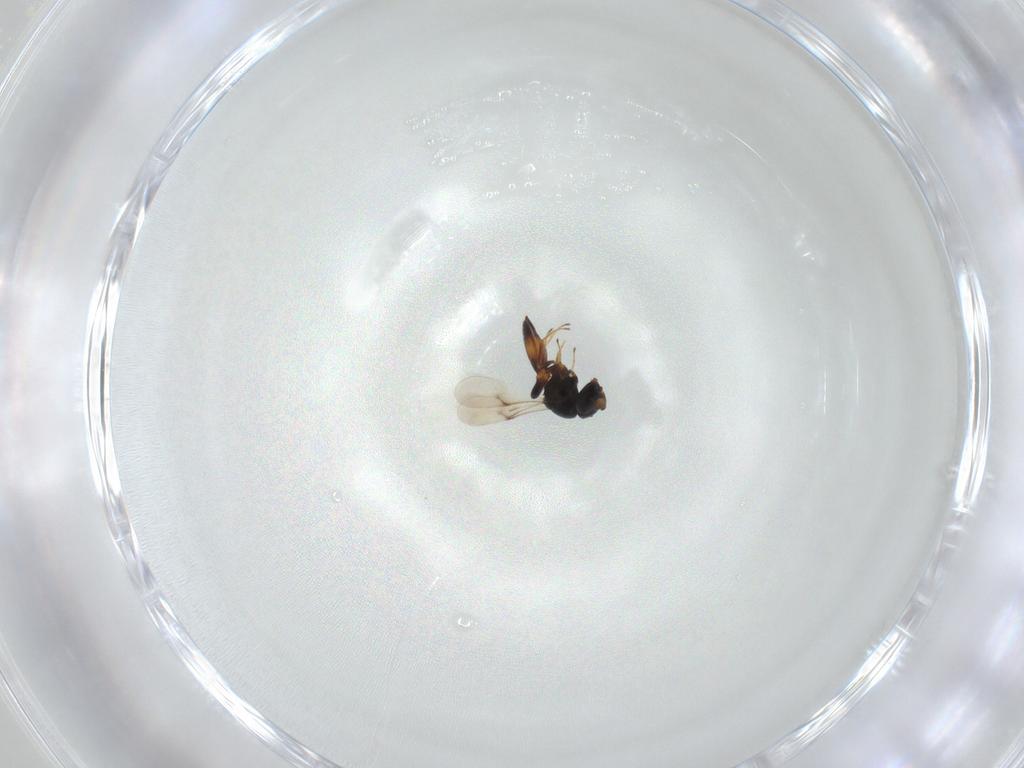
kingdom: Animalia
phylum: Arthropoda
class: Insecta
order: Hymenoptera
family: Scelionidae
